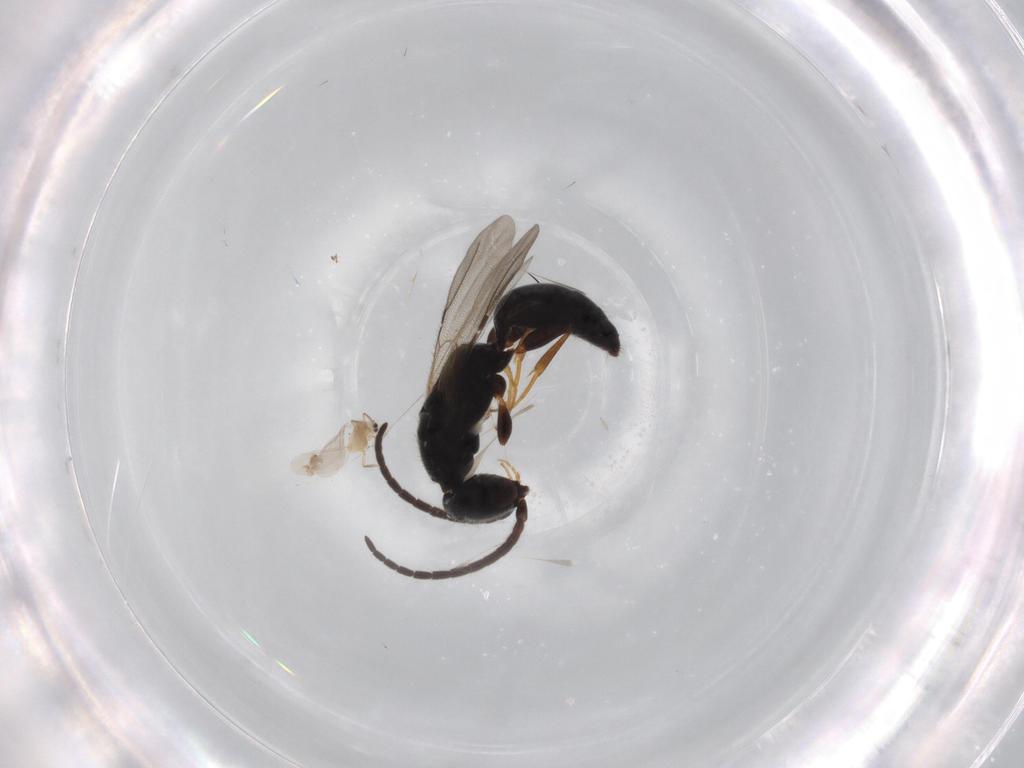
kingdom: Animalia
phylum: Arthropoda
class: Insecta
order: Hymenoptera
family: Bethylidae
